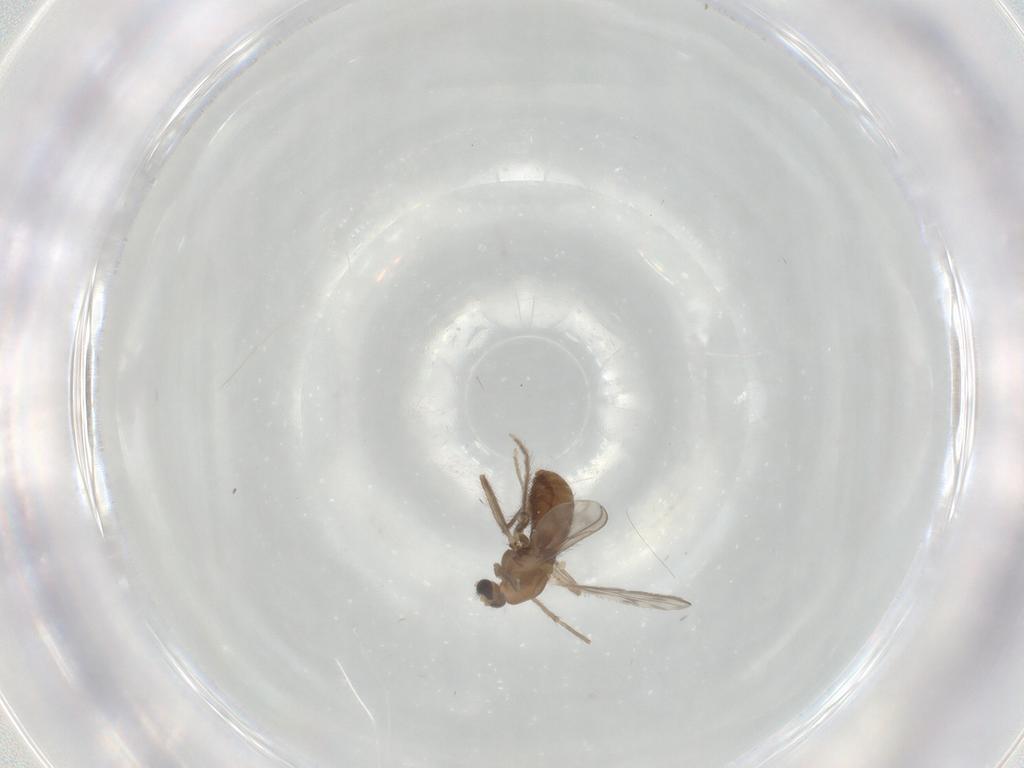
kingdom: Animalia
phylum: Arthropoda
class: Insecta
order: Diptera
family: Chironomidae
